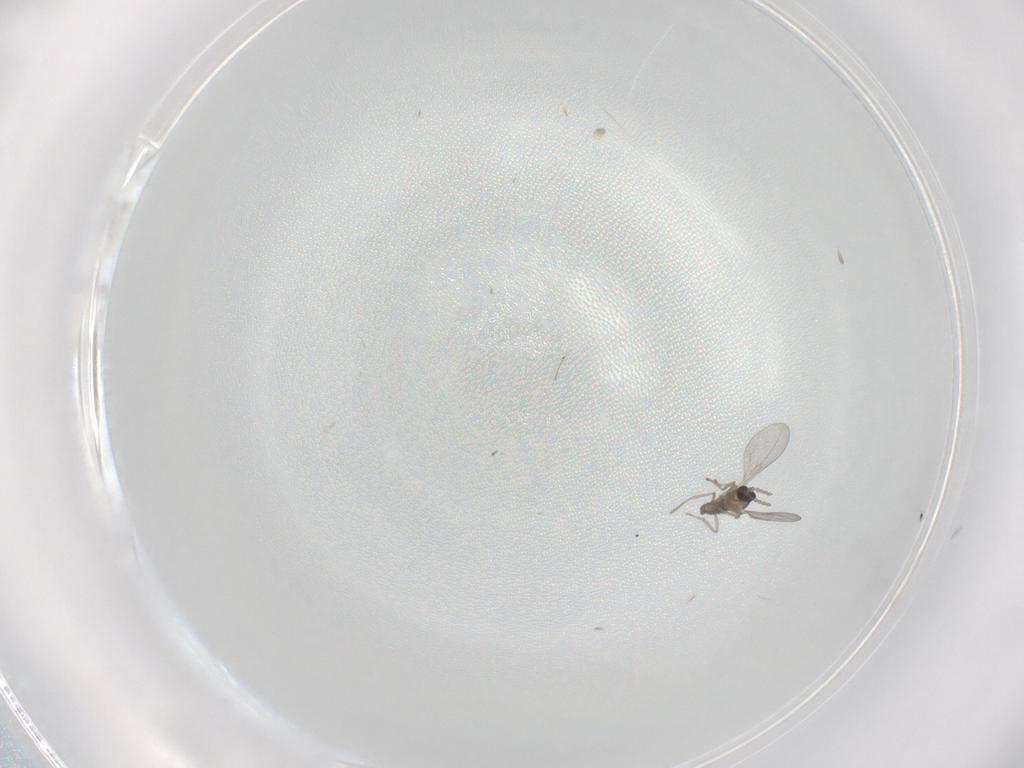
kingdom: Animalia
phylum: Arthropoda
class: Insecta
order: Diptera
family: Stratiomyidae
